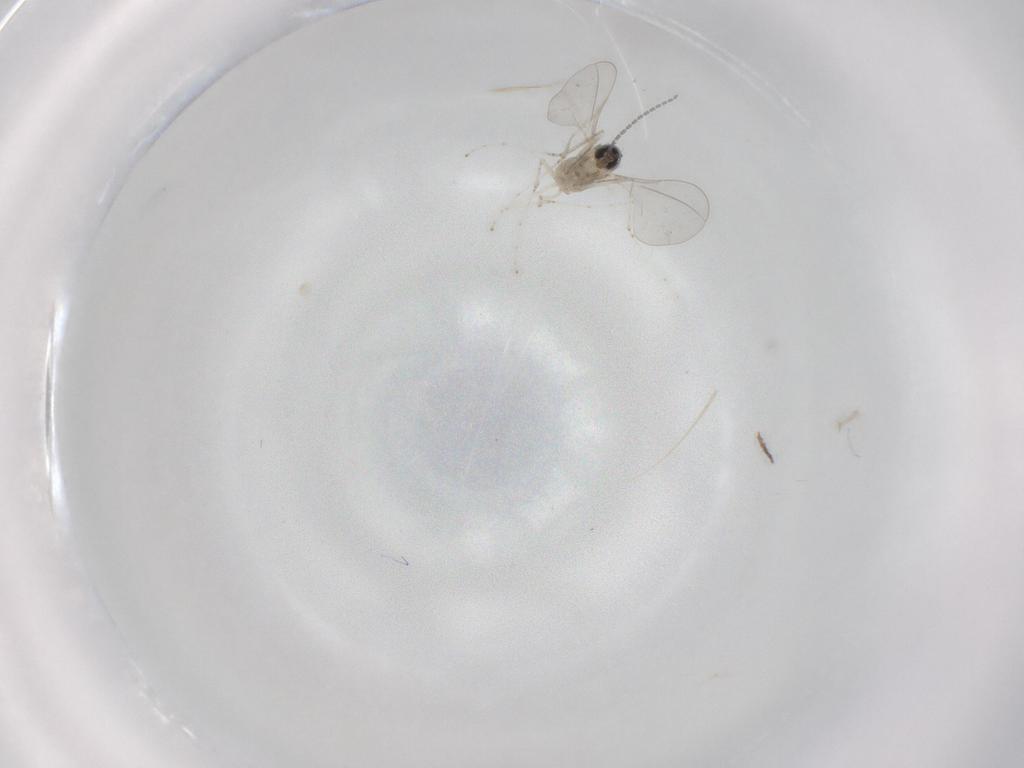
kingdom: Animalia
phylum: Arthropoda
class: Insecta
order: Diptera
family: Cecidomyiidae
